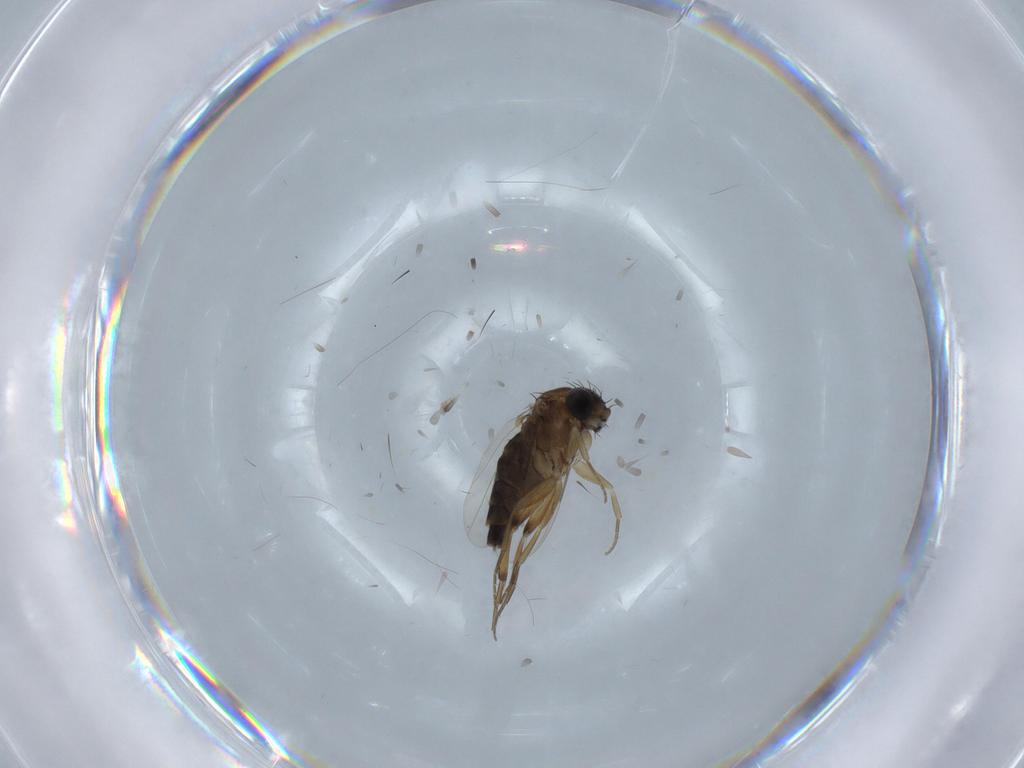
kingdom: Animalia
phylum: Arthropoda
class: Insecta
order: Diptera
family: Phoridae
